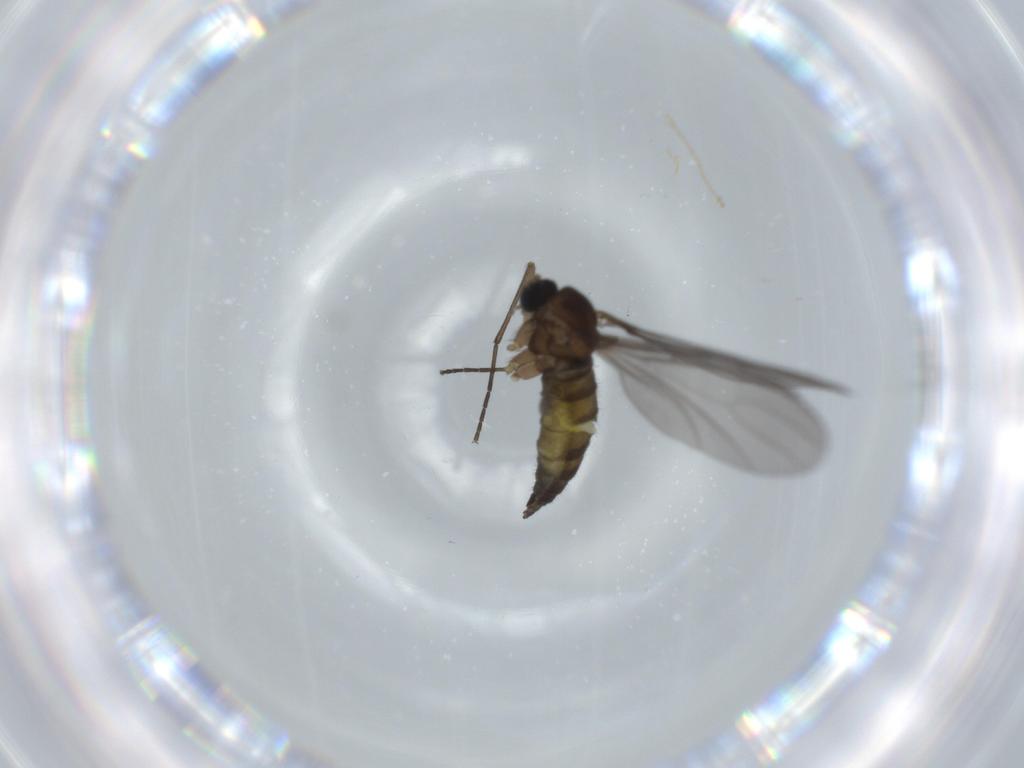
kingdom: Animalia
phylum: Arthropoda
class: Insecta
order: Diptera
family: Sciaridae
